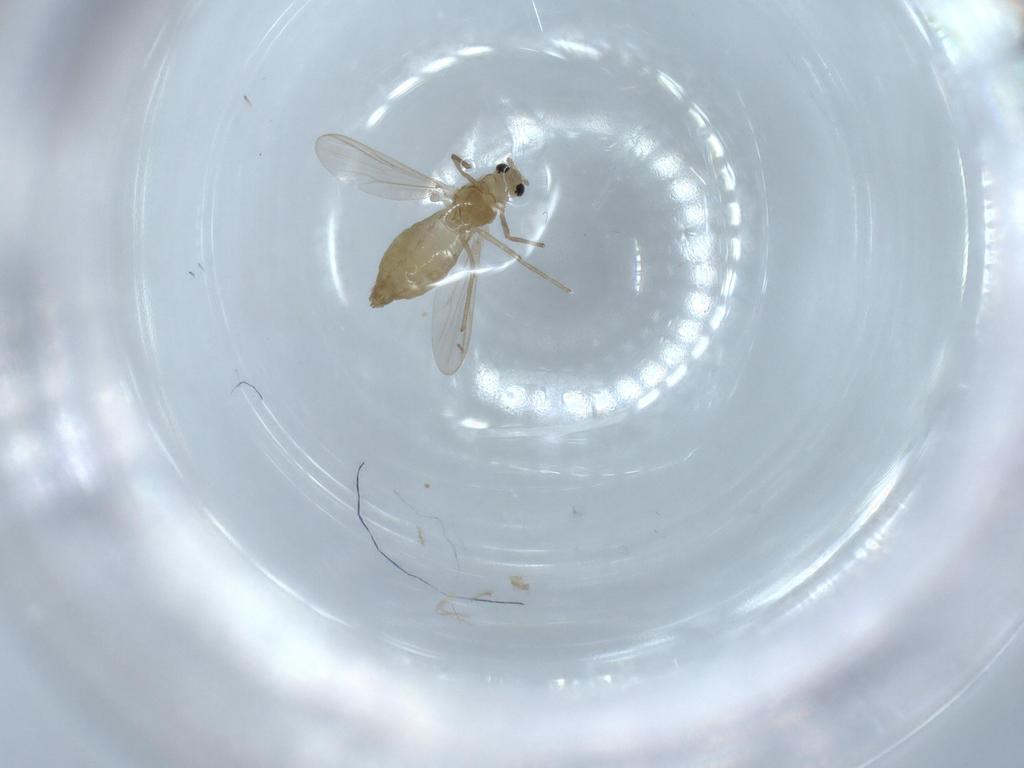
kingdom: Animalia
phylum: Arthropoda
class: Insecta
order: Diptera
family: Chironomidae
